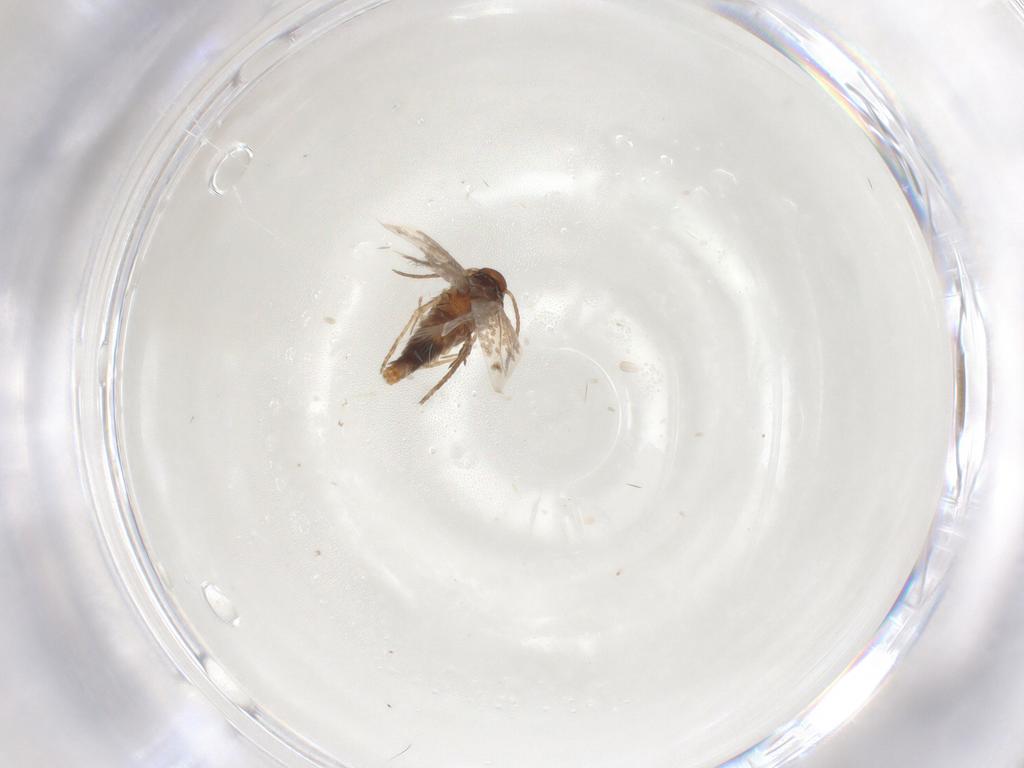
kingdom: Animalia
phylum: Arthropoda
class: Insecta
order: Lepidoptera
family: Heliozelidae
